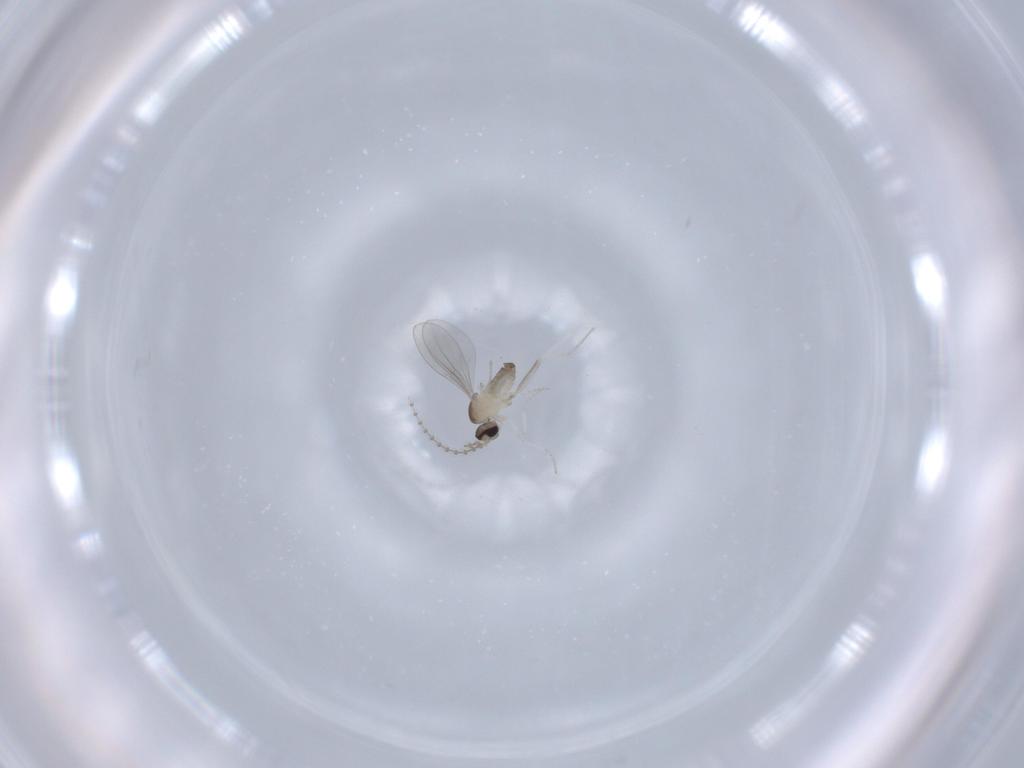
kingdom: Animalia
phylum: Arthropoda
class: Insecta
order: Diptera
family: Cecidomyiidae
